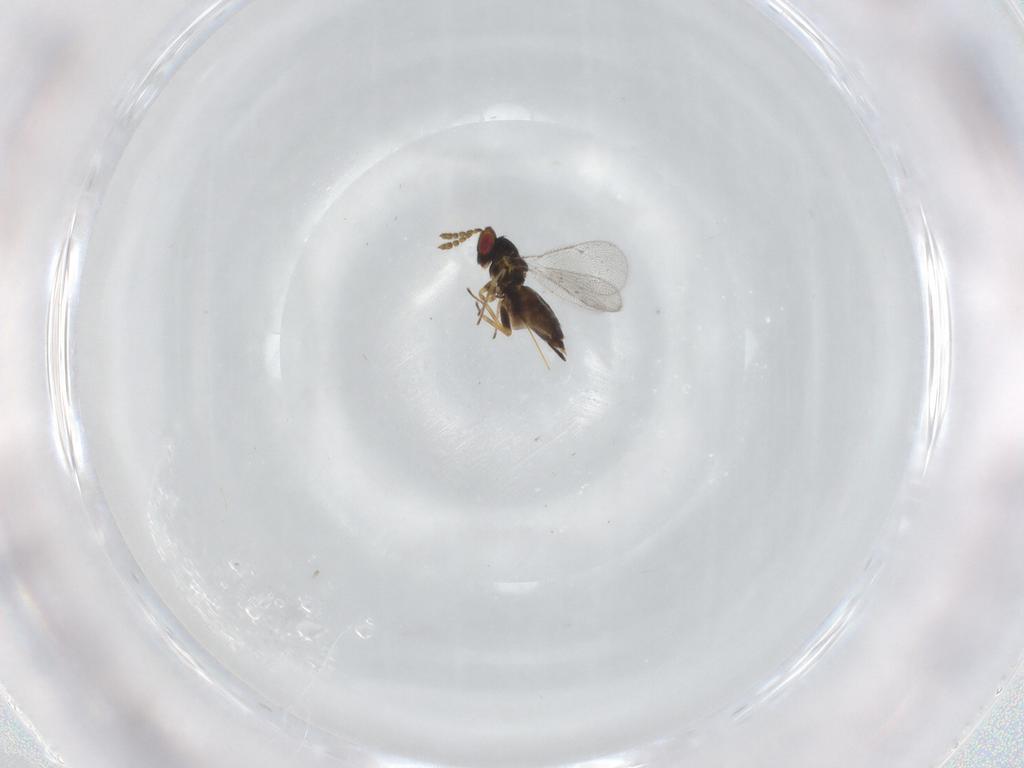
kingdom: Animalia
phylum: Arthropoda
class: Insecta
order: Hymenoptera
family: Eulophidae
